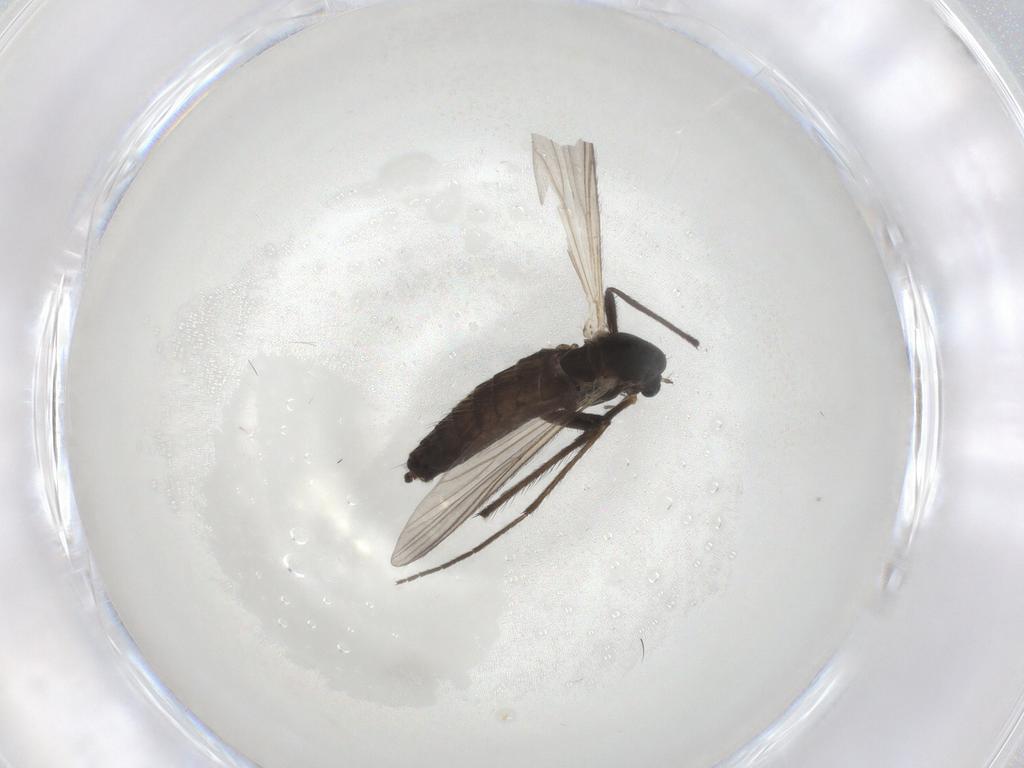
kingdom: Animalia
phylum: Arthropoda
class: Insecta
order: Diptera
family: Chironomidae
